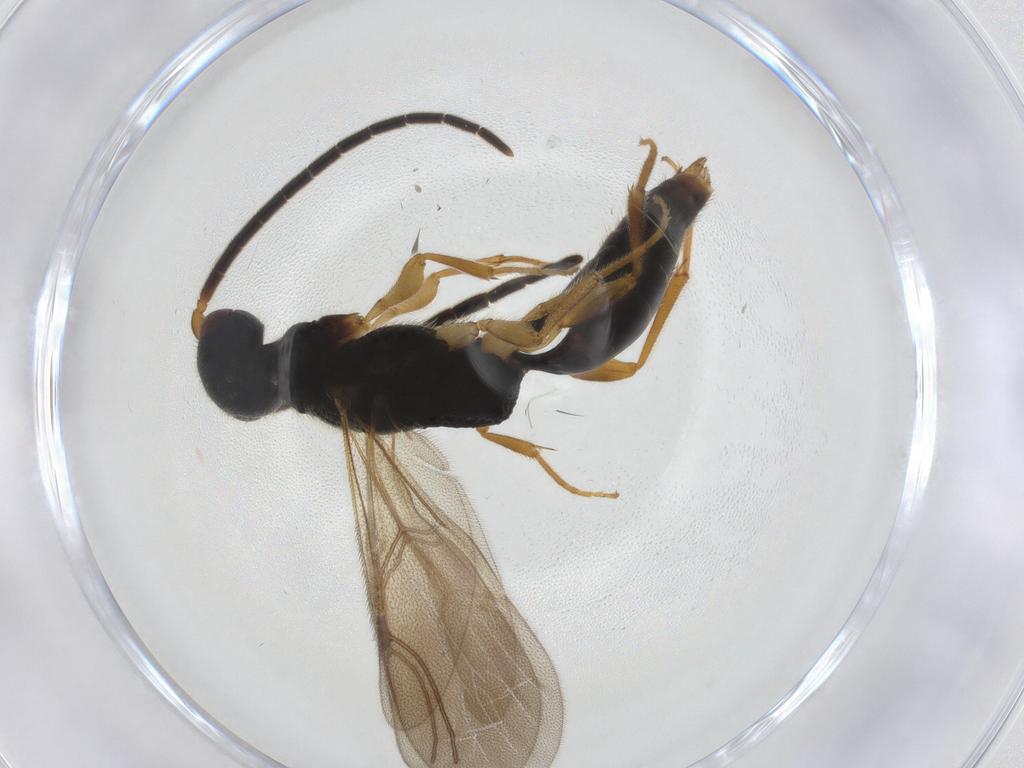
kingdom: Animalia
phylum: Arthropoda
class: Insecta
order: Hymenoptera
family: Bethylidae
